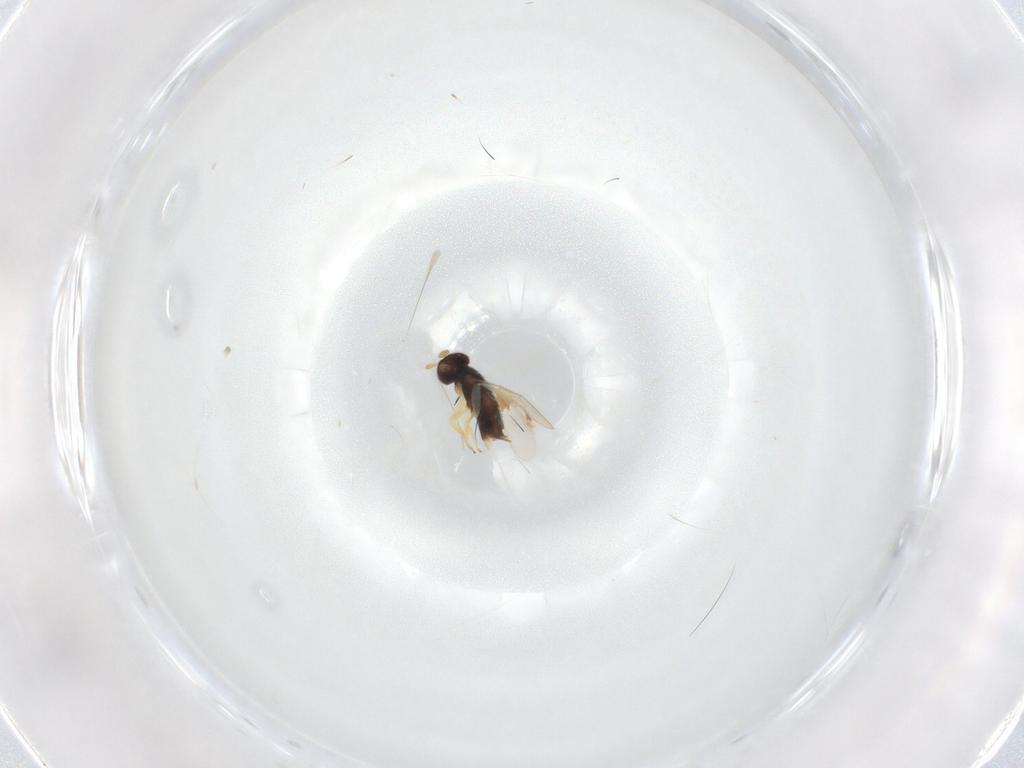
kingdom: Animalia
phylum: Arthropoda
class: Insecta
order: Hymenoptera
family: Aphelinidae
